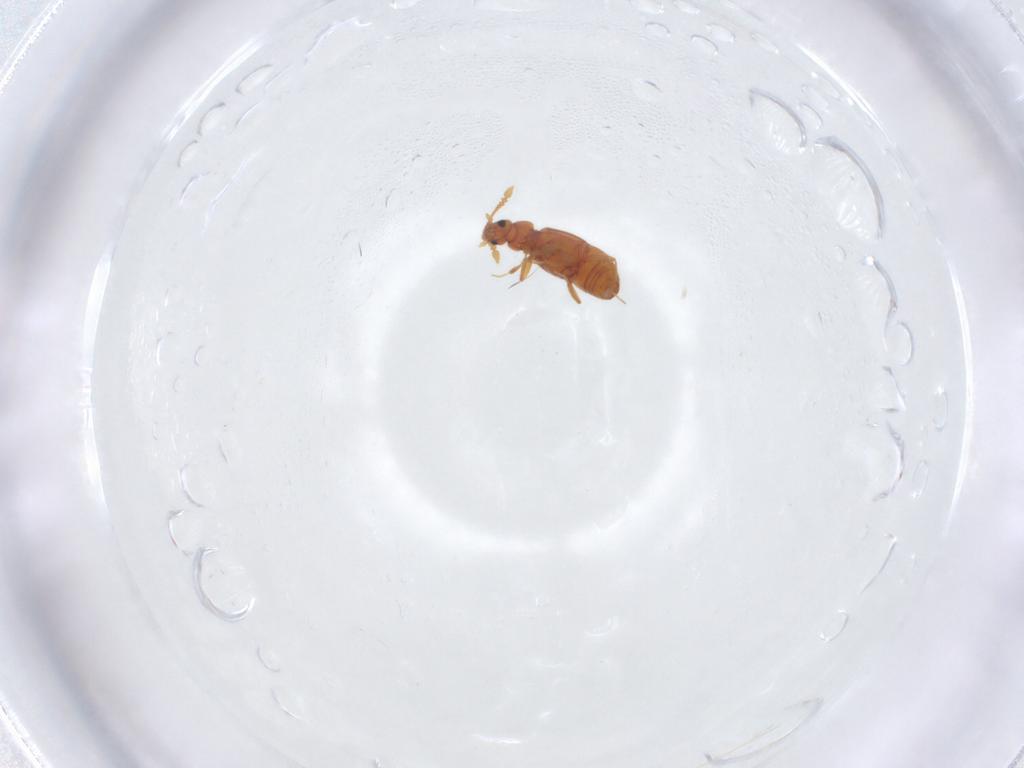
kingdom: Animalia
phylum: Arthropoda
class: Insecta
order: Coleoptera
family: Staphylinidae
